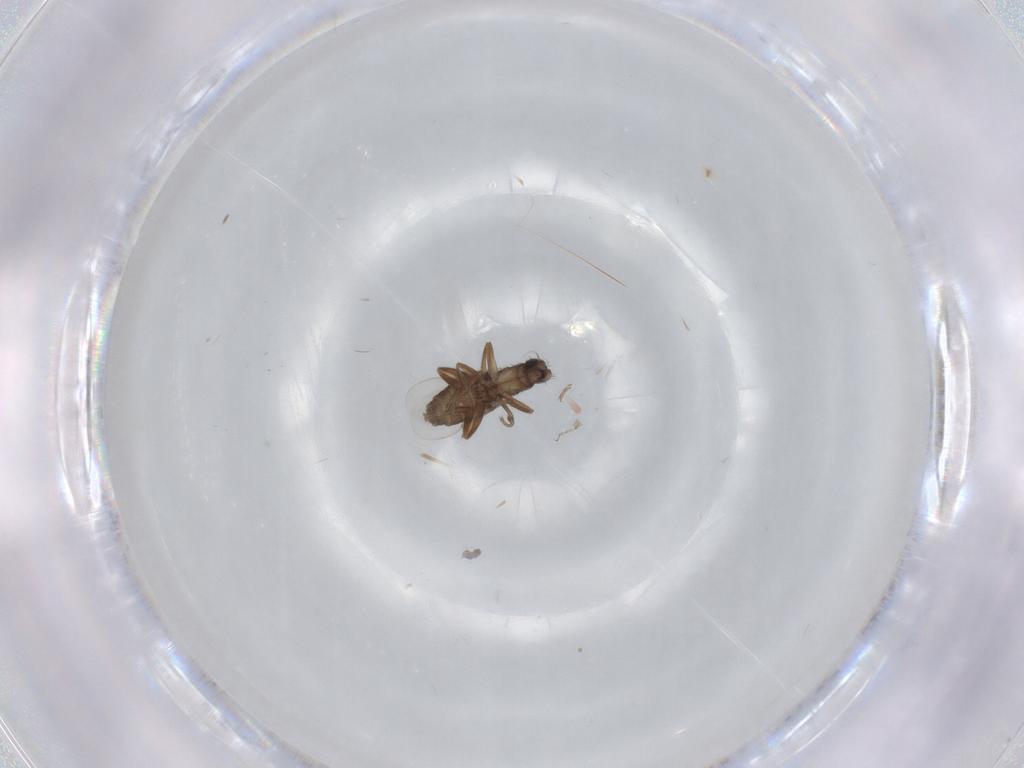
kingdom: Animalia
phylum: Arthropoda
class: Insecta
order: Diptera
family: Phoridae
